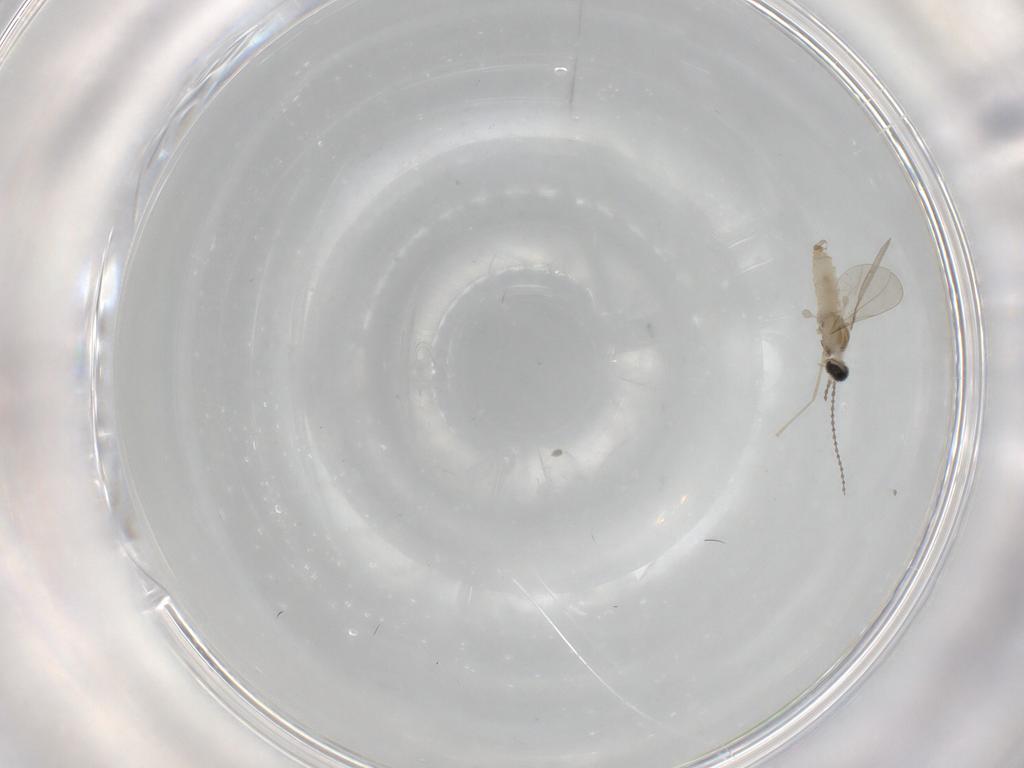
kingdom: Animalia
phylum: Arthropoda
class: Insecta
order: Diptera
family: Cecidomyiidae
